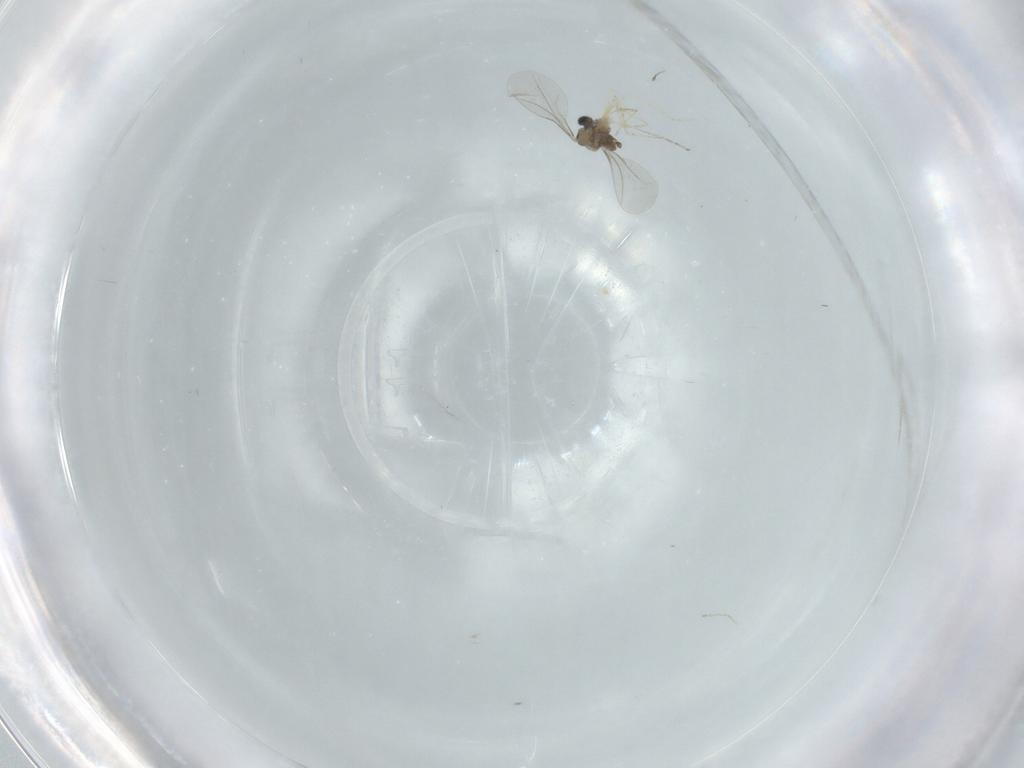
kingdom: Animalia
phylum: Arthropoda
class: Insecta
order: Diptera
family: Cecidomyiidae
